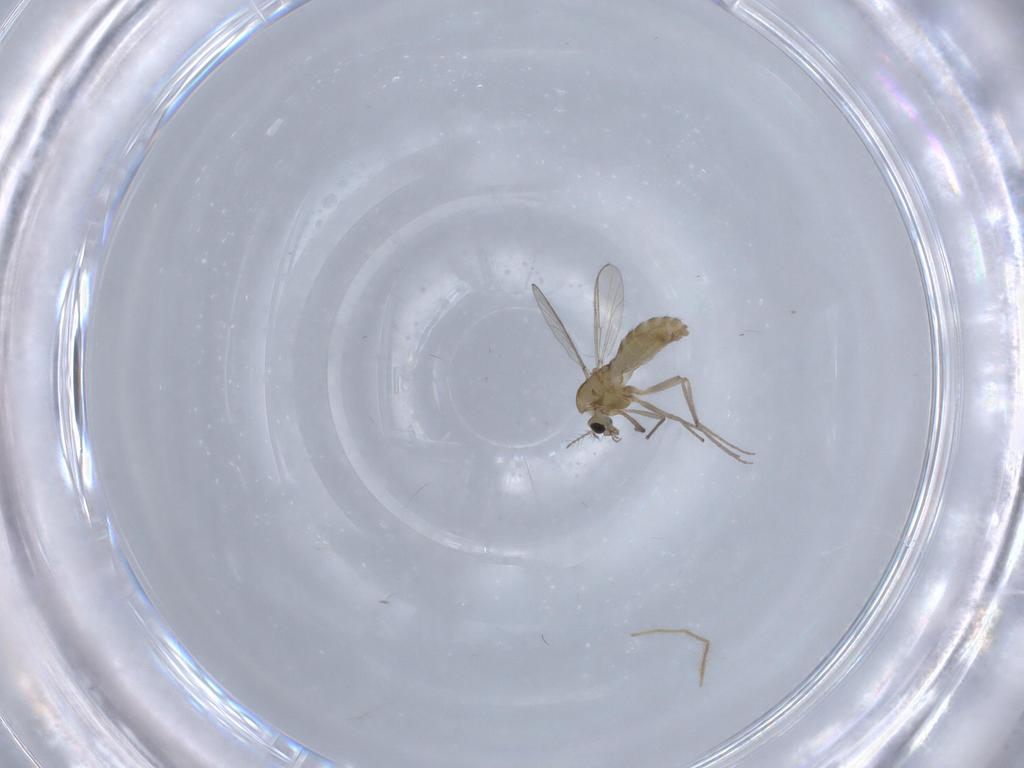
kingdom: Animalia
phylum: Arthropoda
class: Insecta
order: Diptera
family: Chironomidae
